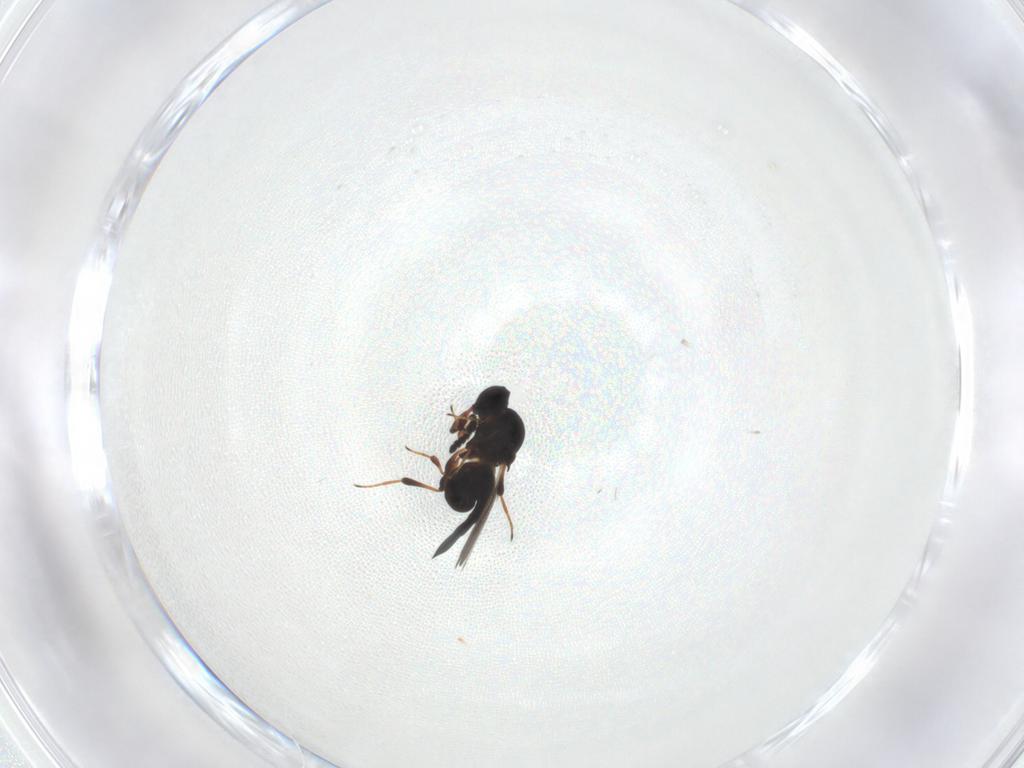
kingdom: Animalia
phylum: Arthropoda
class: Insecta
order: Hymenoptera
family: Platygastridae
